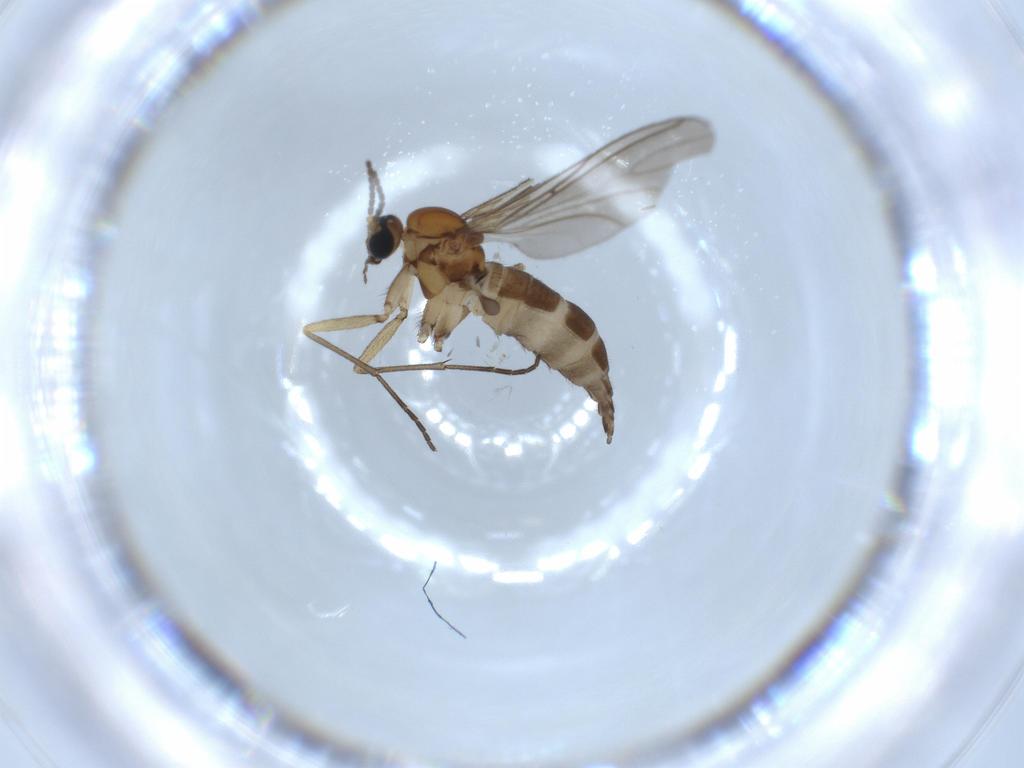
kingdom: Animalia
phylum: Arthropoda
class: Insecta
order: Diptera
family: Sciaridae
